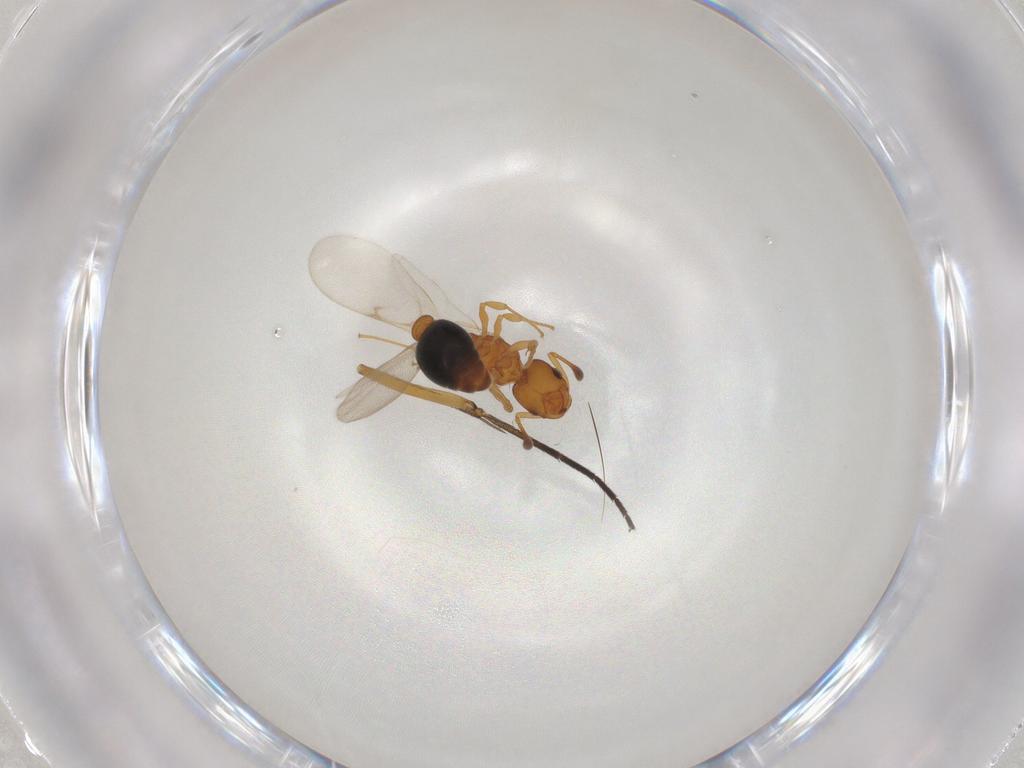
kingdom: Animalia
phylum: Arthropoda
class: Insecta
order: Hymenoptera
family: Formicidae
